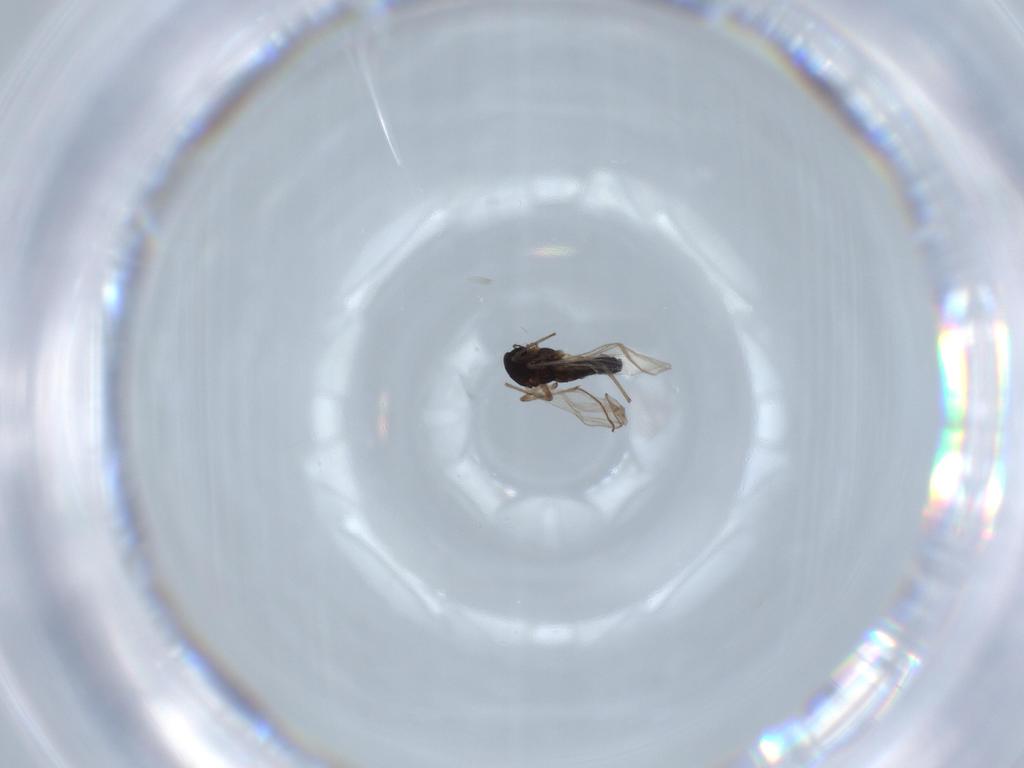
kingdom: Animalia
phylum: Arthropoda
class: Insecta
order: Diptera
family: Chironomidae
